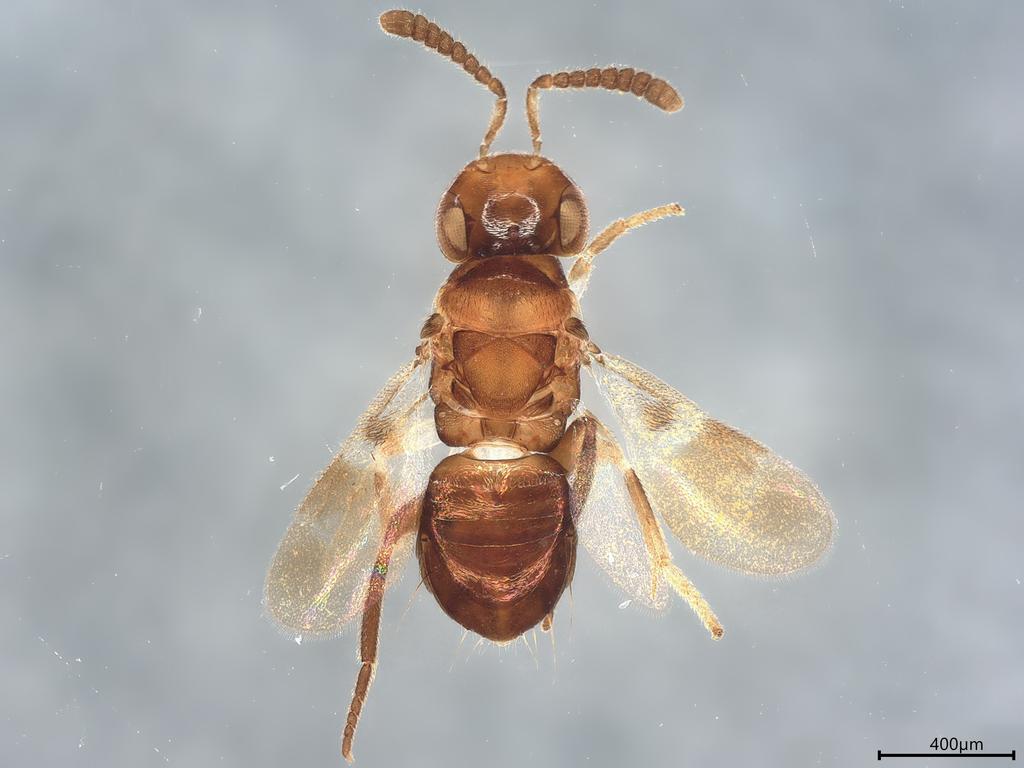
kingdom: Animalia
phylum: Arthropoda
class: Insecta
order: Hymenoptera
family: Encyrtidae
